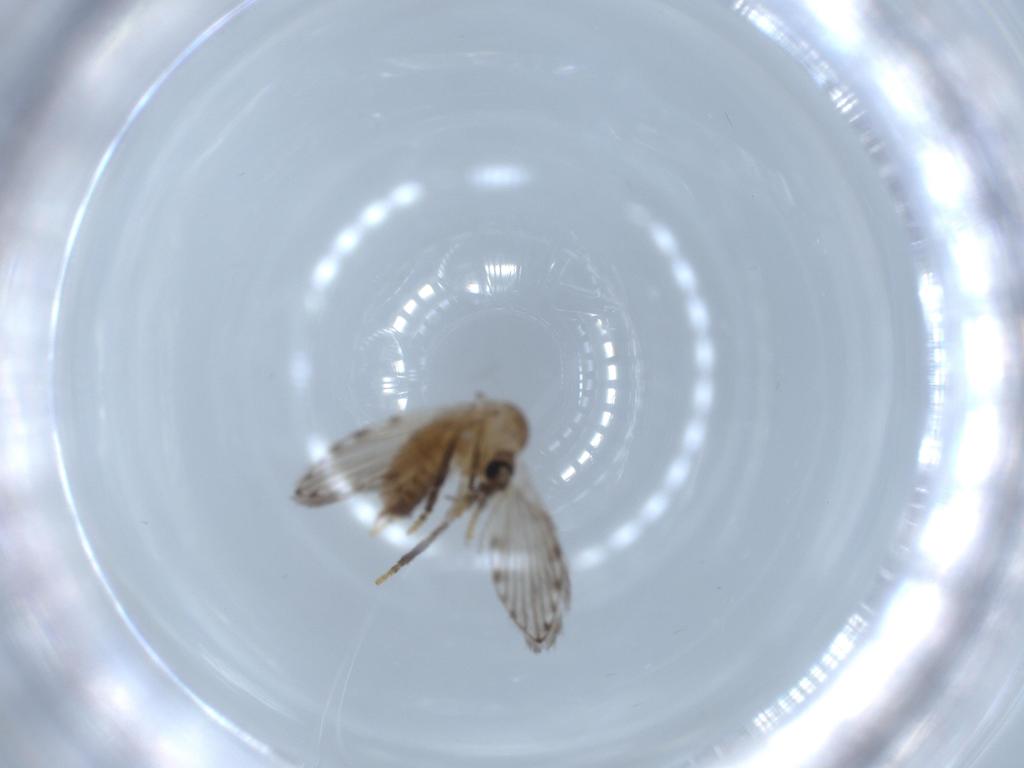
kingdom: Animalia
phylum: Arthropoda
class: Insecta
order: Diptera
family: Psychodidae
